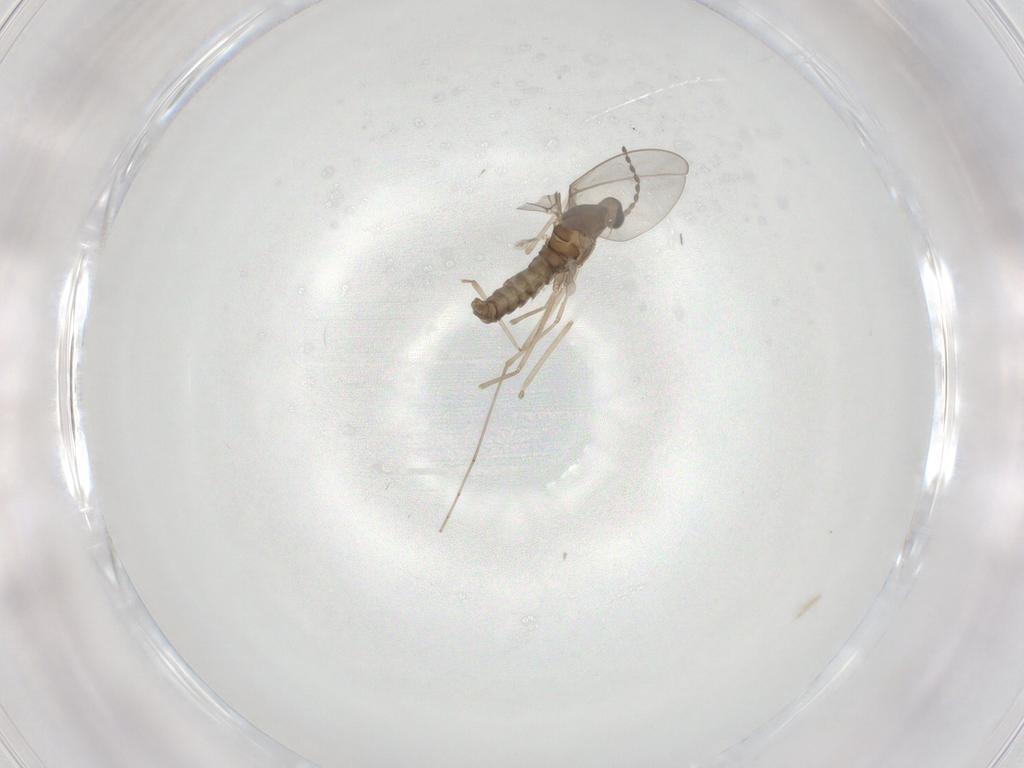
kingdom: Animalia
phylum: Arthropoda
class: Insecta
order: Diptera
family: Cecidomyiidae
